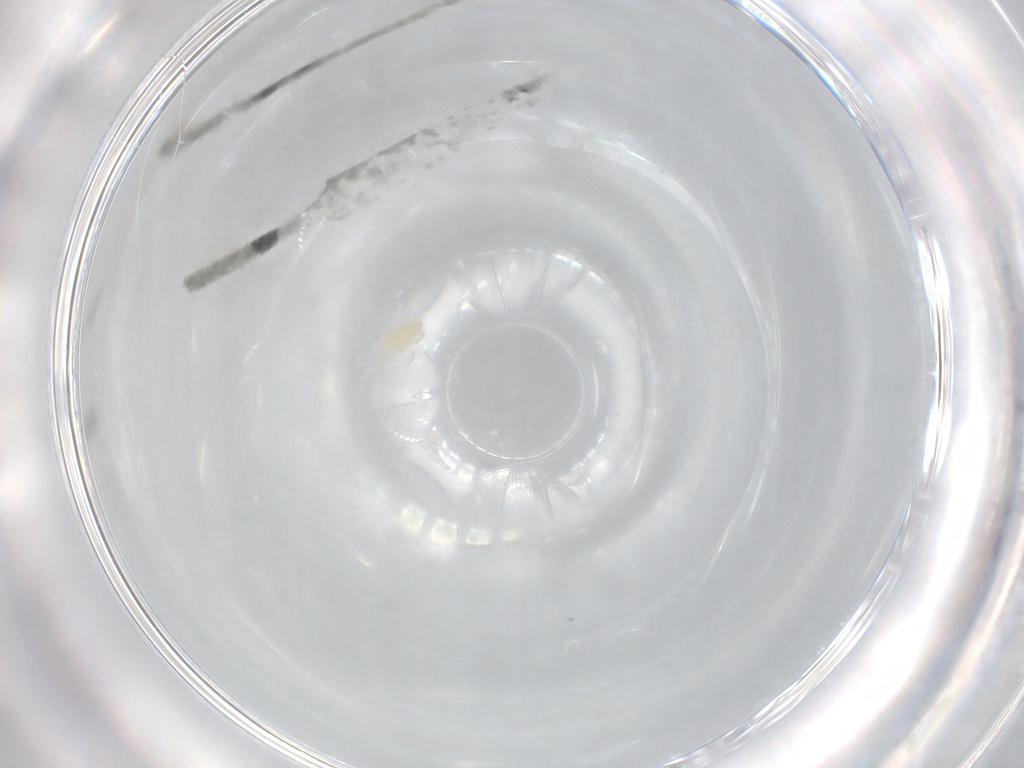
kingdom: Animalia
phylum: Arthropoda
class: Arachnida
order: Trombidiformes
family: Eupodidae
